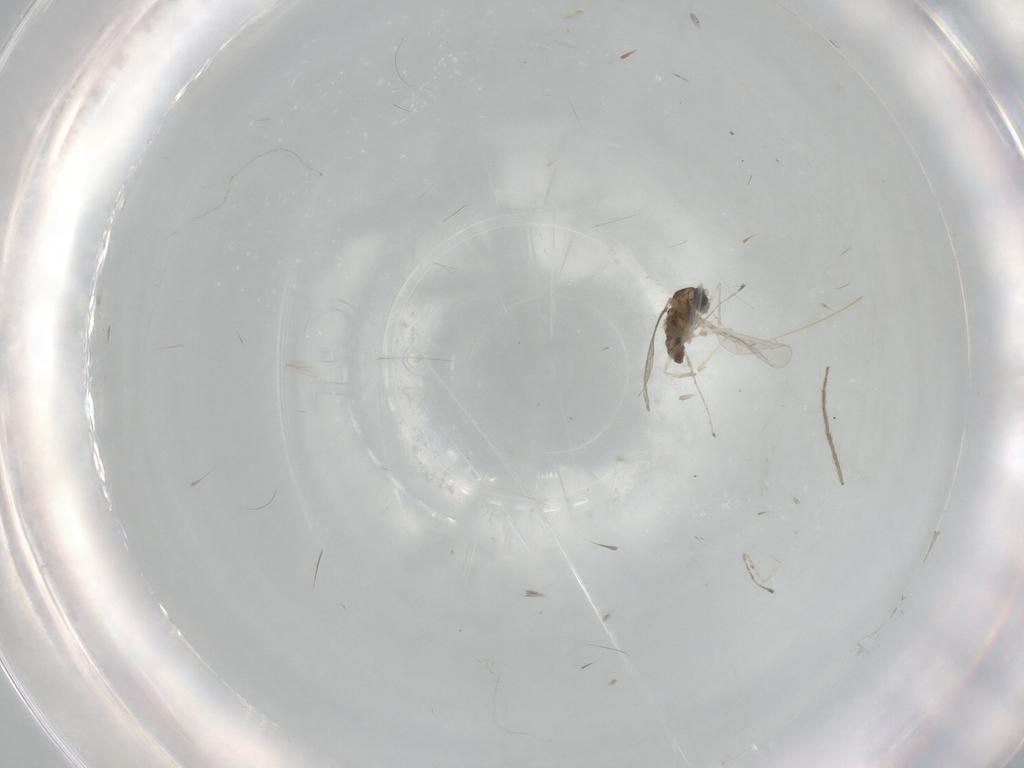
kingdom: Animalia
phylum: Arthropoda
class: Insecta
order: Diptera
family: Cecidomyiidae
